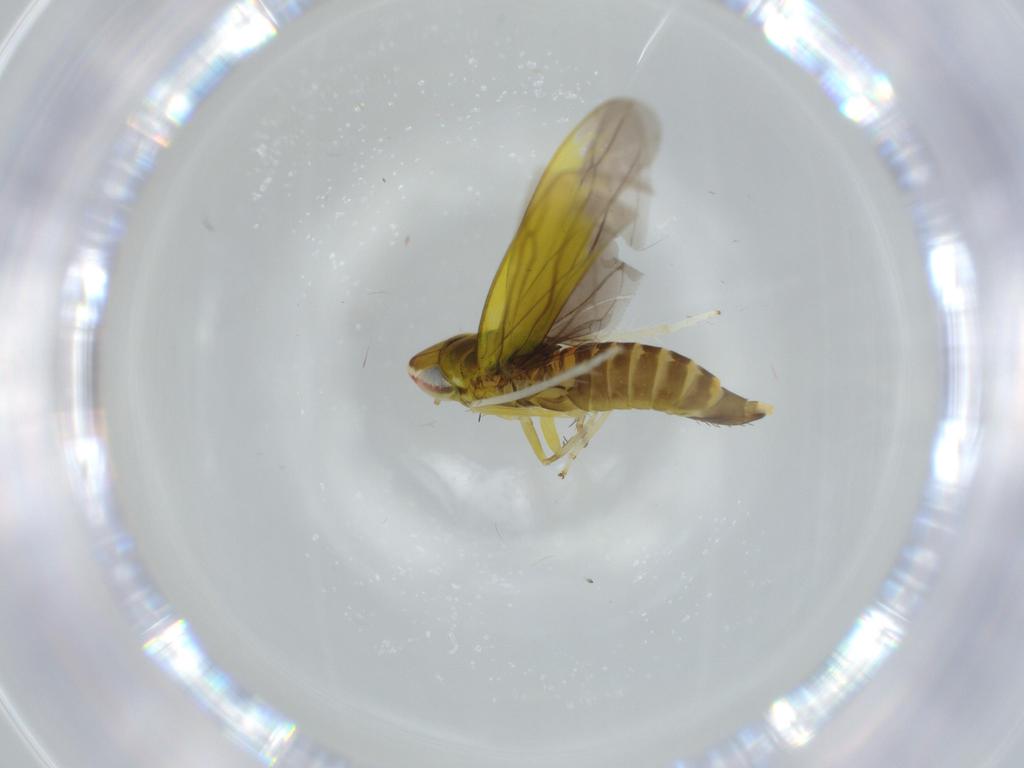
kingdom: Animalia
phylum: Arthropoda
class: Insecta
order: Hemiptera
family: Cicadellidae
